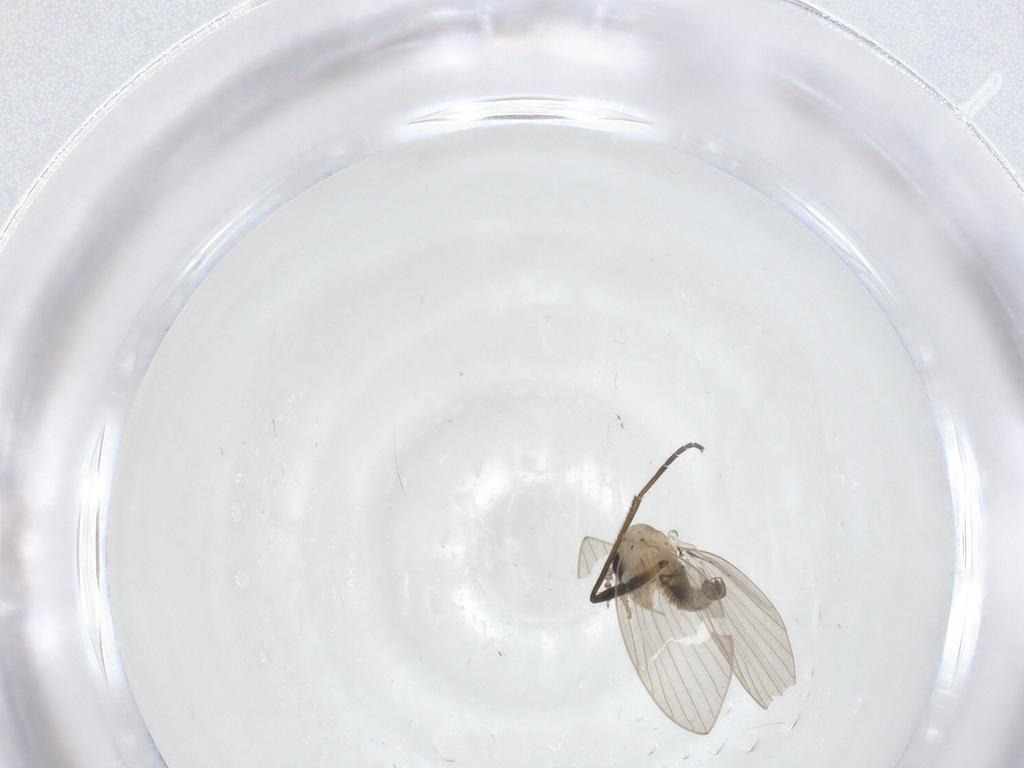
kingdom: Animalia
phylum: Arthropoda
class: Insecta
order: Diptera
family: Psychodidae
